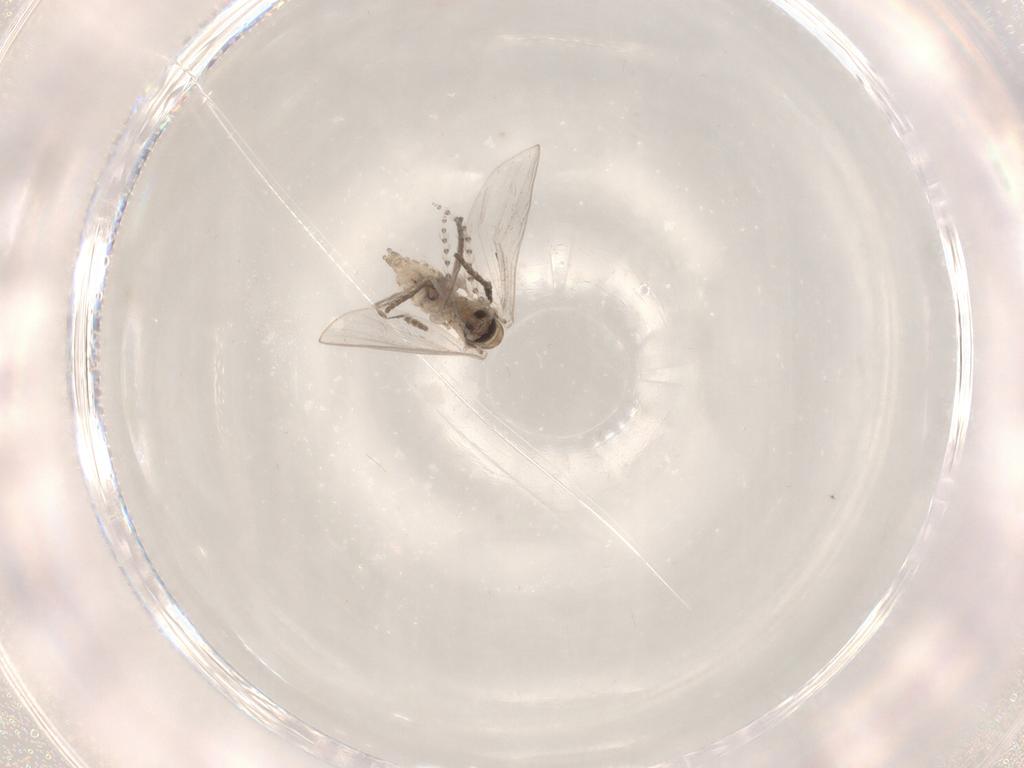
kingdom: Animalia
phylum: Arthropoda
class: Insecta
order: Diptera
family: Psychodidae
